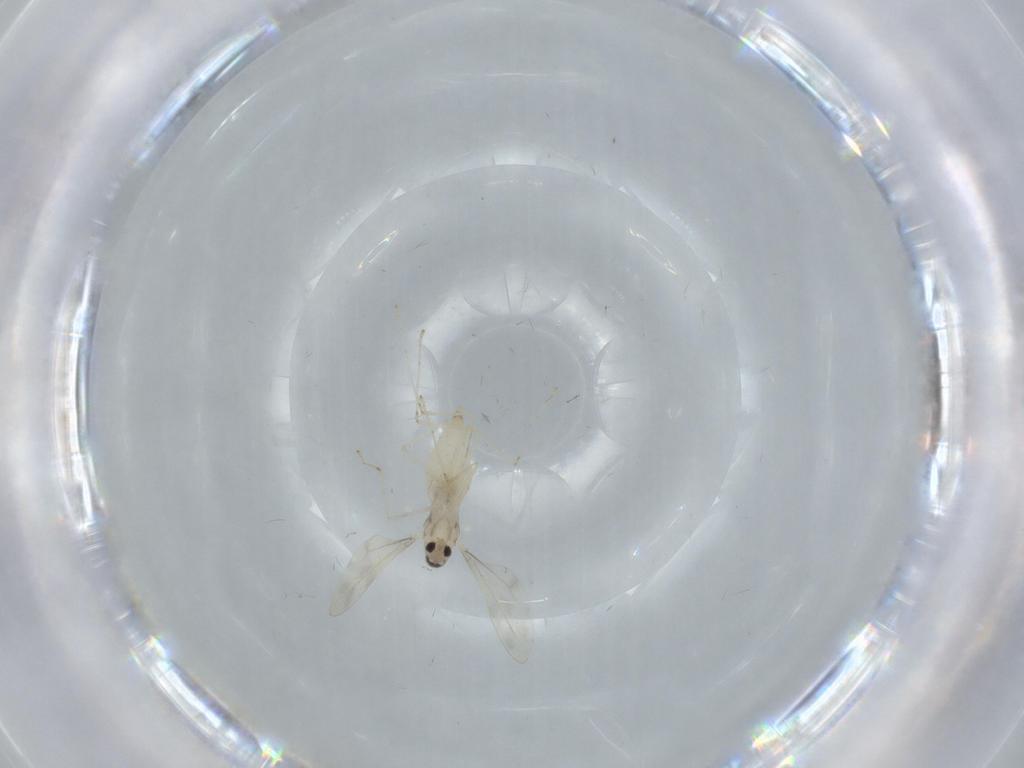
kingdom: Animalia
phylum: Arthropoda
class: Insecta
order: Diptera
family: Cecidomyiidae
